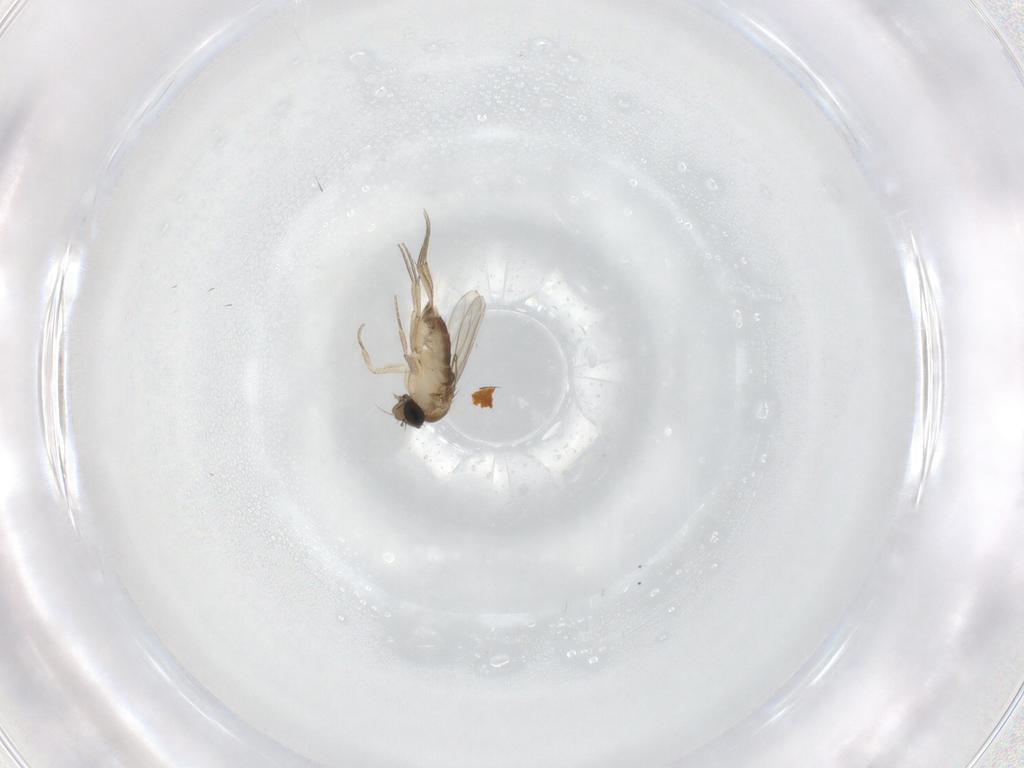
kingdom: Animalia
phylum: Arthropoda
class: Insecta
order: Diptera
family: Phoridae
